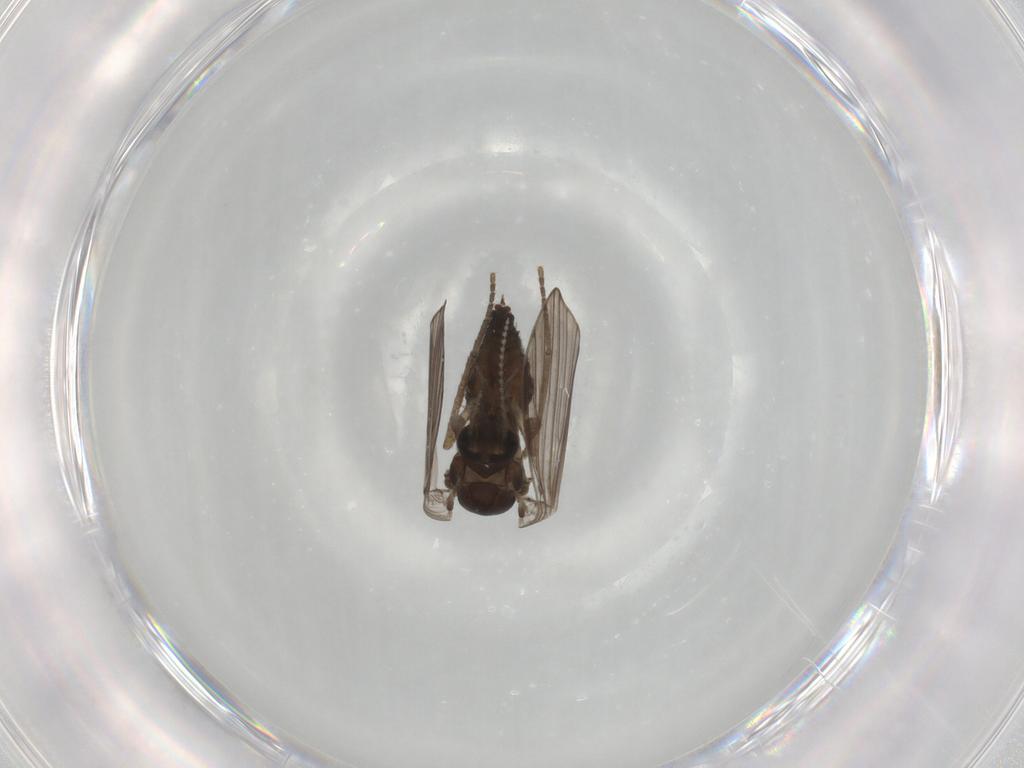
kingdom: Animalia
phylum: Arthropoda
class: Insecta
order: Diptera
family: Psychodidae
